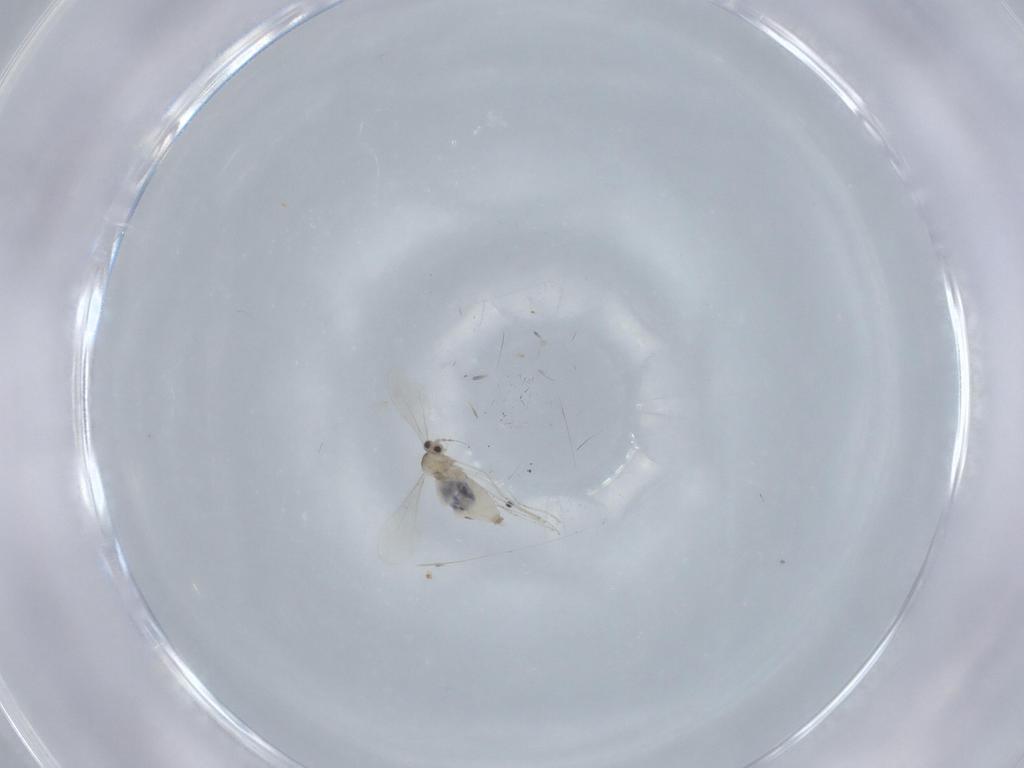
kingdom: Animalia
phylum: Arthropoda
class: Insecta
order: Diptera
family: Cecidomyiidae
